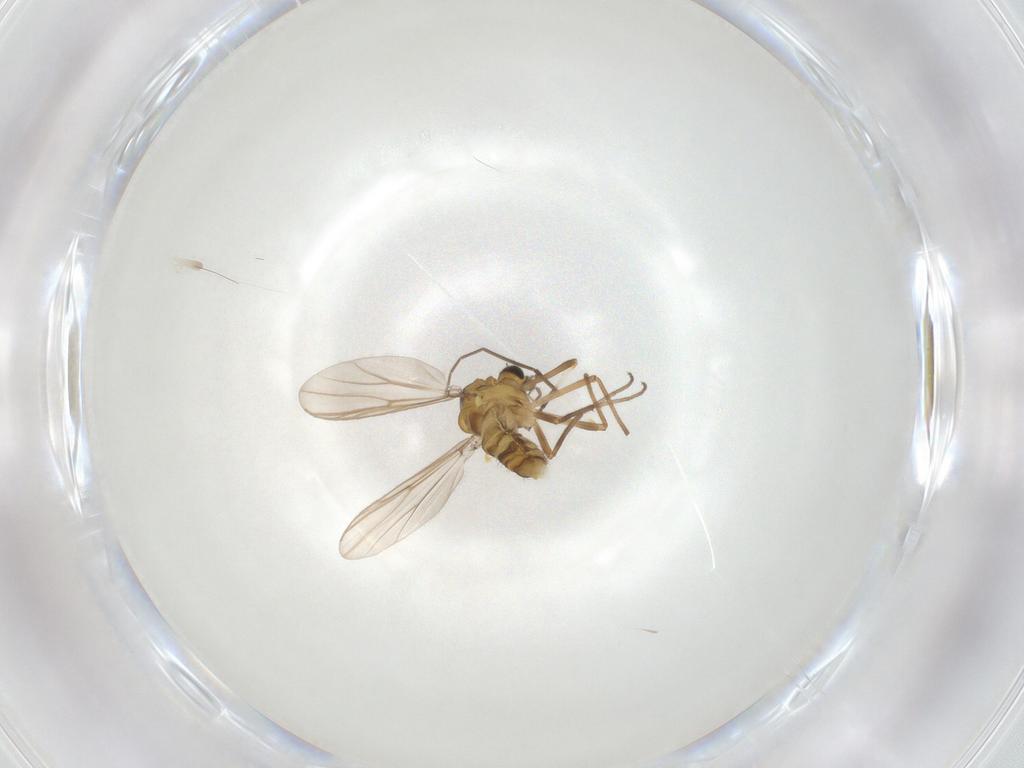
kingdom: Animalia
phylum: Arthropoda
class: Insecta
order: Diptera
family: Chironomidae
